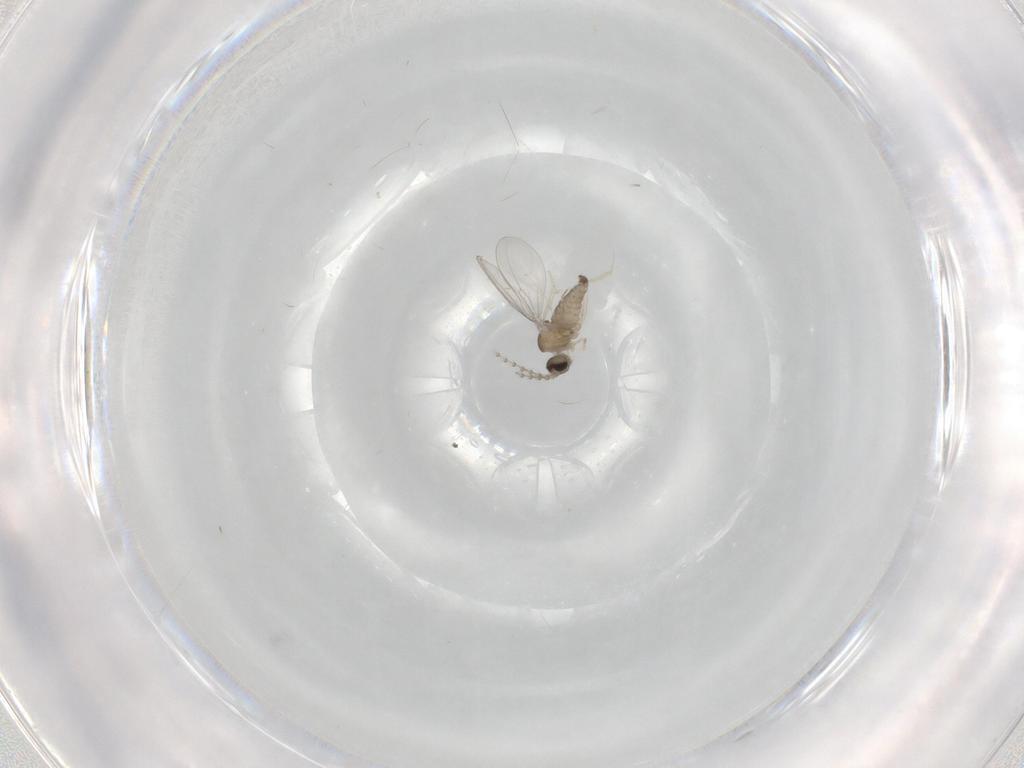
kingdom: Animalia
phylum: Arthropoda
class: Insecta
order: Diptera
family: Cecidomyiidae
